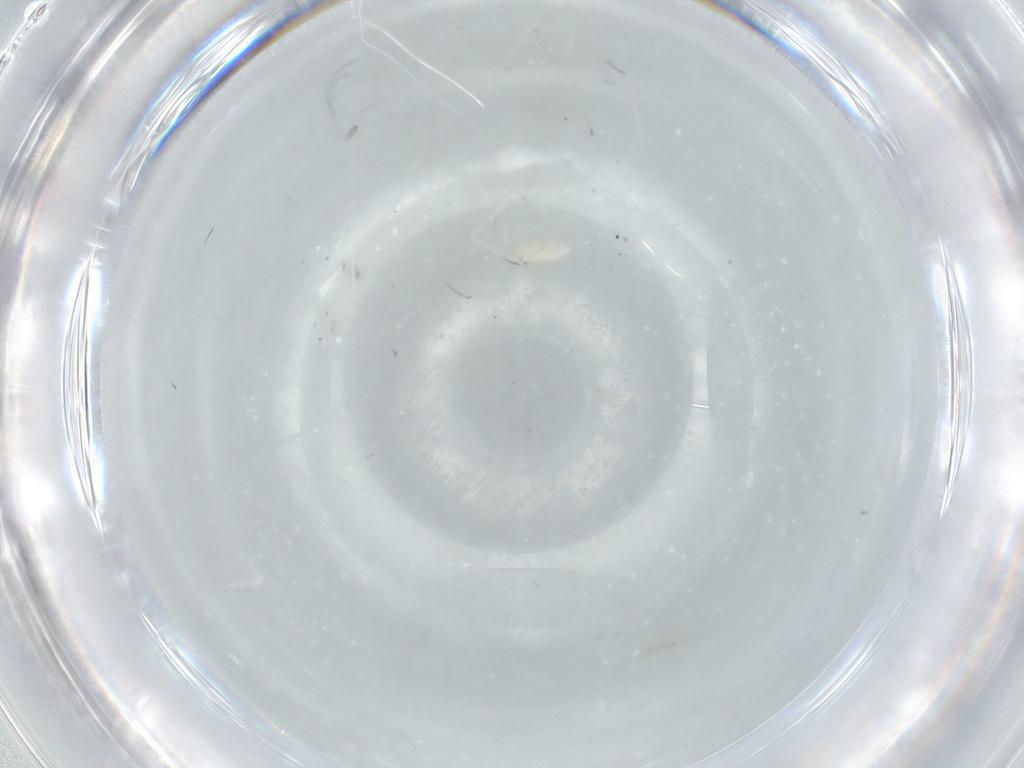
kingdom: Animalia
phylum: Arthropoda
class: Insecta
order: Diptera
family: Cecidomyiidae
